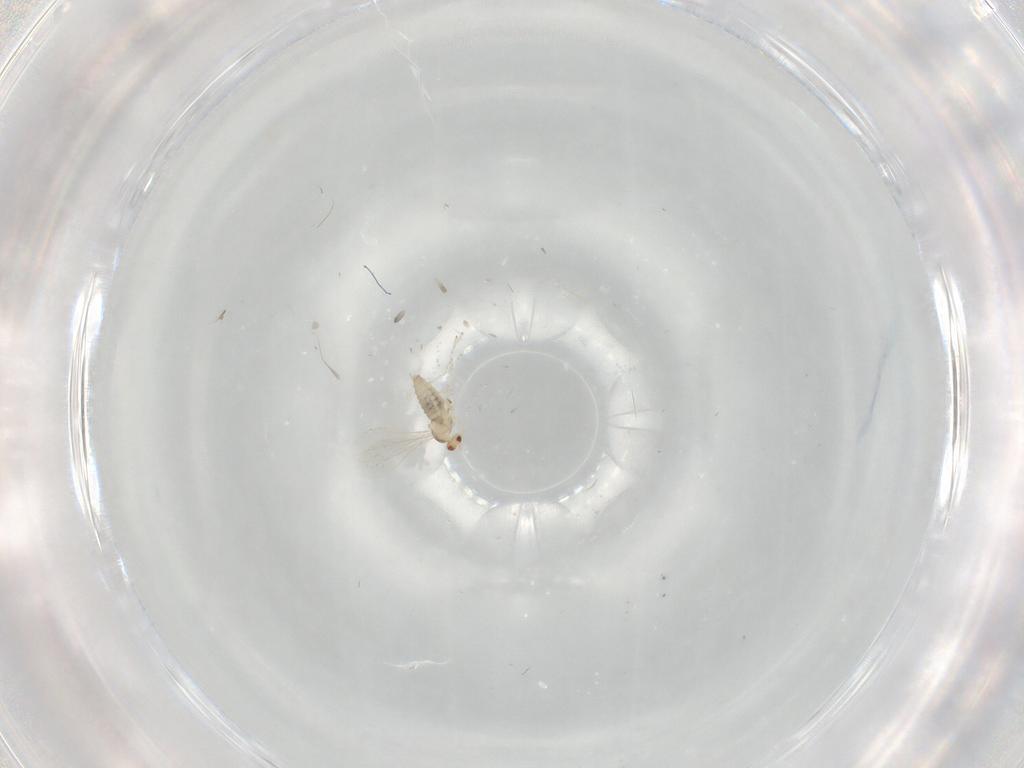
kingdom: Animalia
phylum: Arthropoda
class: Insecta
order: Diptera
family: Cecidomyiidae
